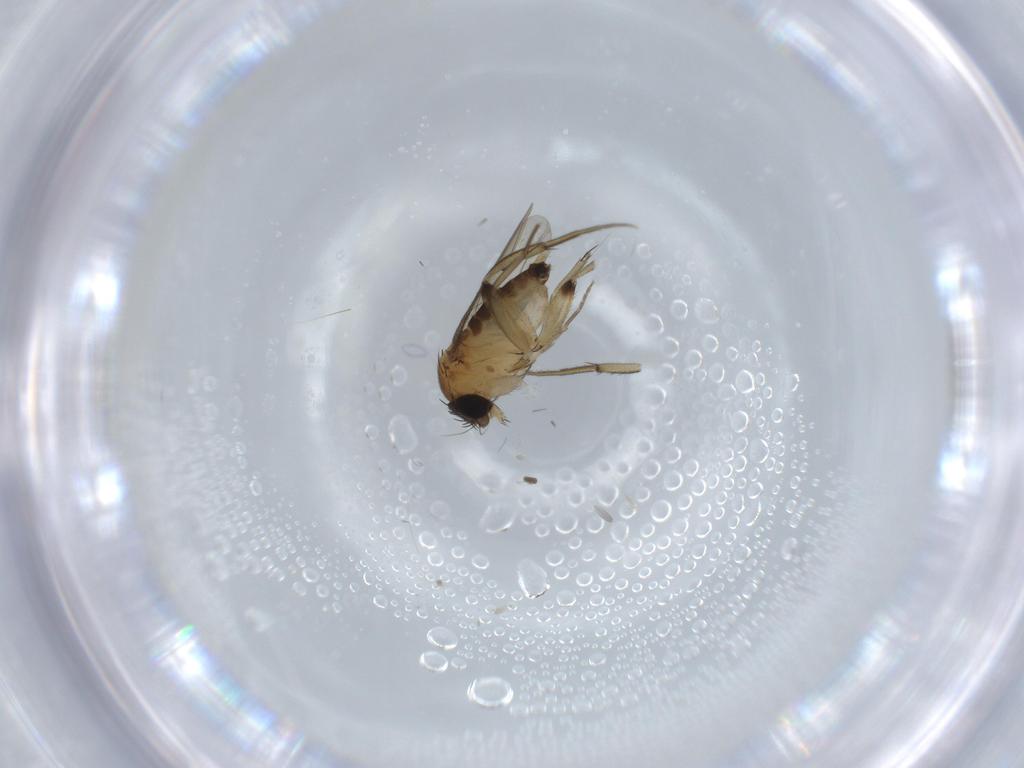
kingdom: Animalia
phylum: Arthropoda
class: Insecta
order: Diptera
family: Phoridae
